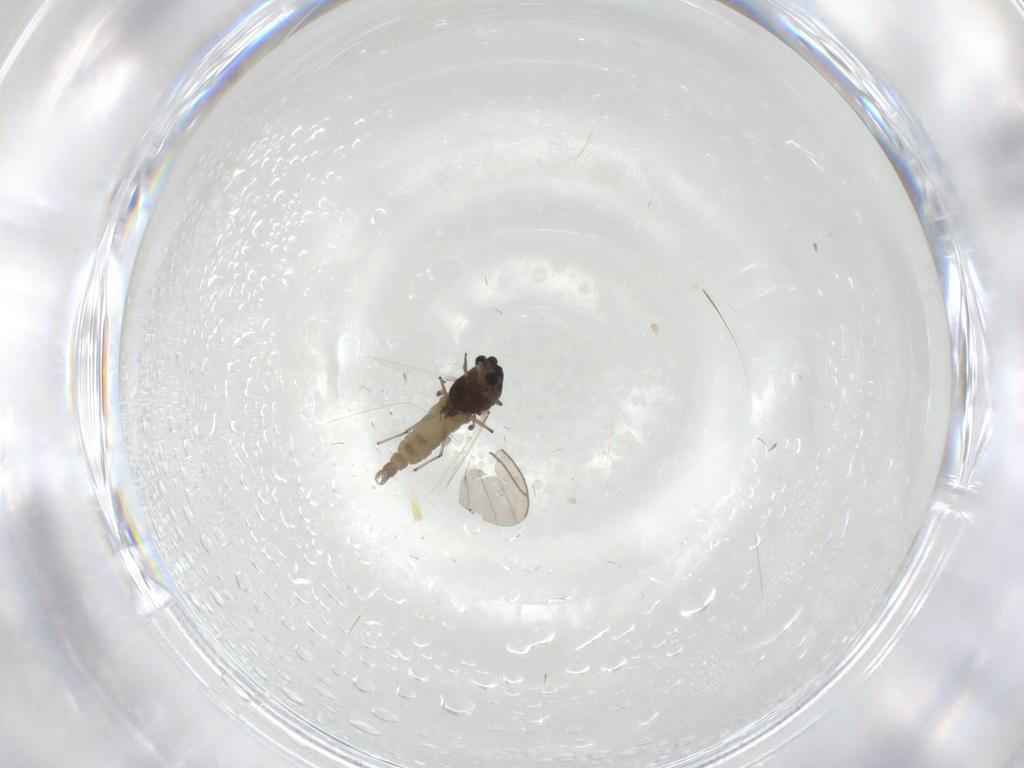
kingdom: Animalia
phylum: Arthropoda
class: Insecta
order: Diptera
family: Chironomidae
